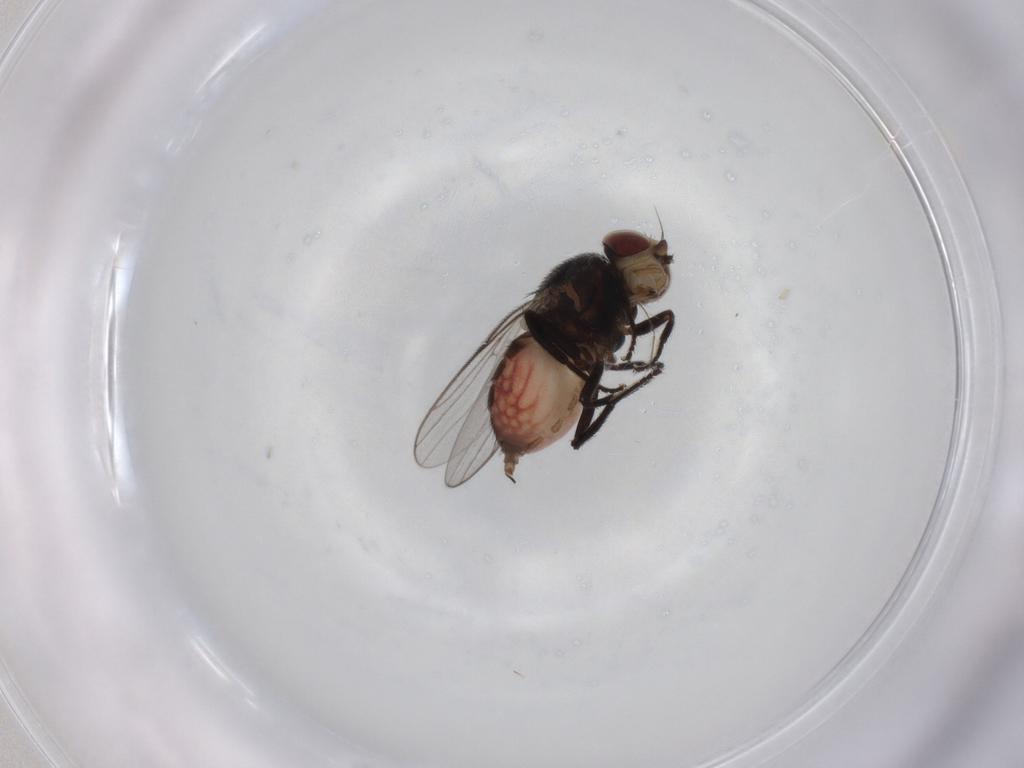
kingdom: Animalia
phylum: Arthropoda
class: Insecta
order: Diptera
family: Chloropidae
